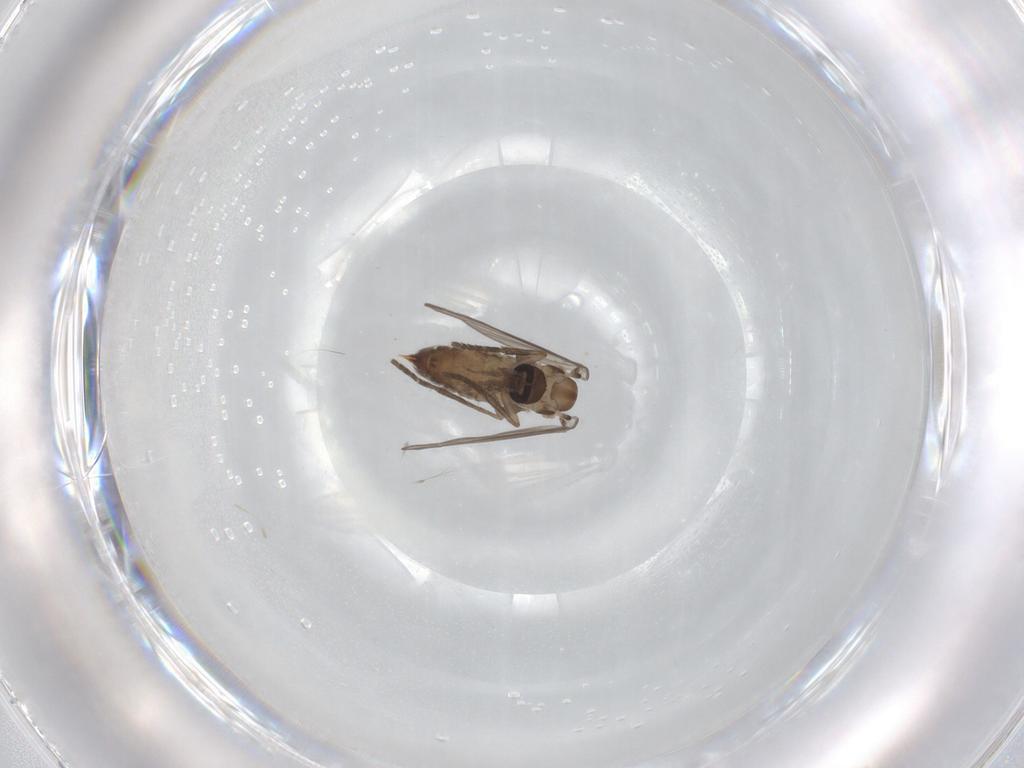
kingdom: Animalia
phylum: Arthropoda
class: Insecta
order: Diptera
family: Psychodidae
